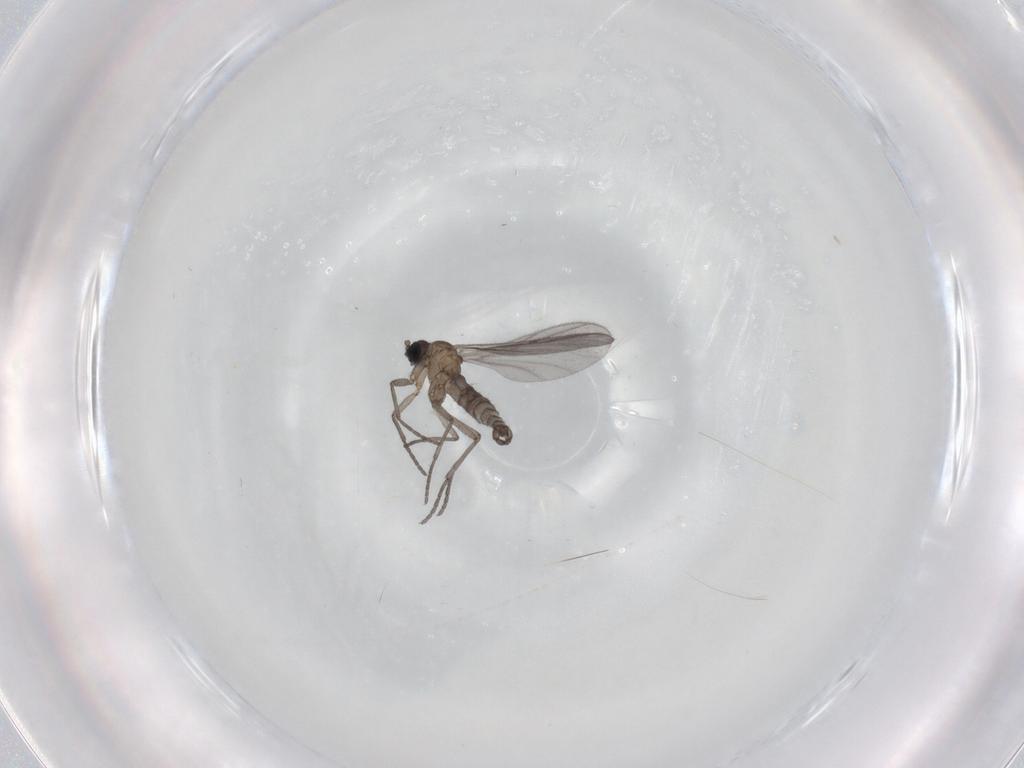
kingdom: Animalia
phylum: Arthropoda
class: Insecta
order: Diptera
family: Sciaridae
